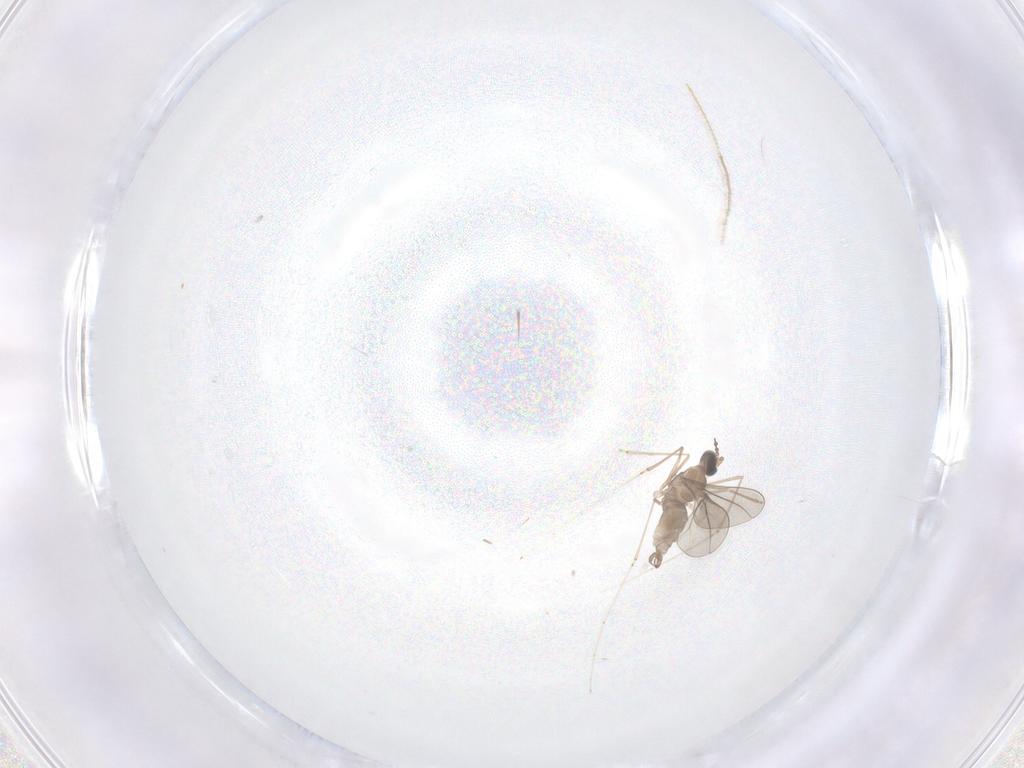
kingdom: Animalia
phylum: Arthropoda
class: Insecta
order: Diptera
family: Ceratopogonidae
